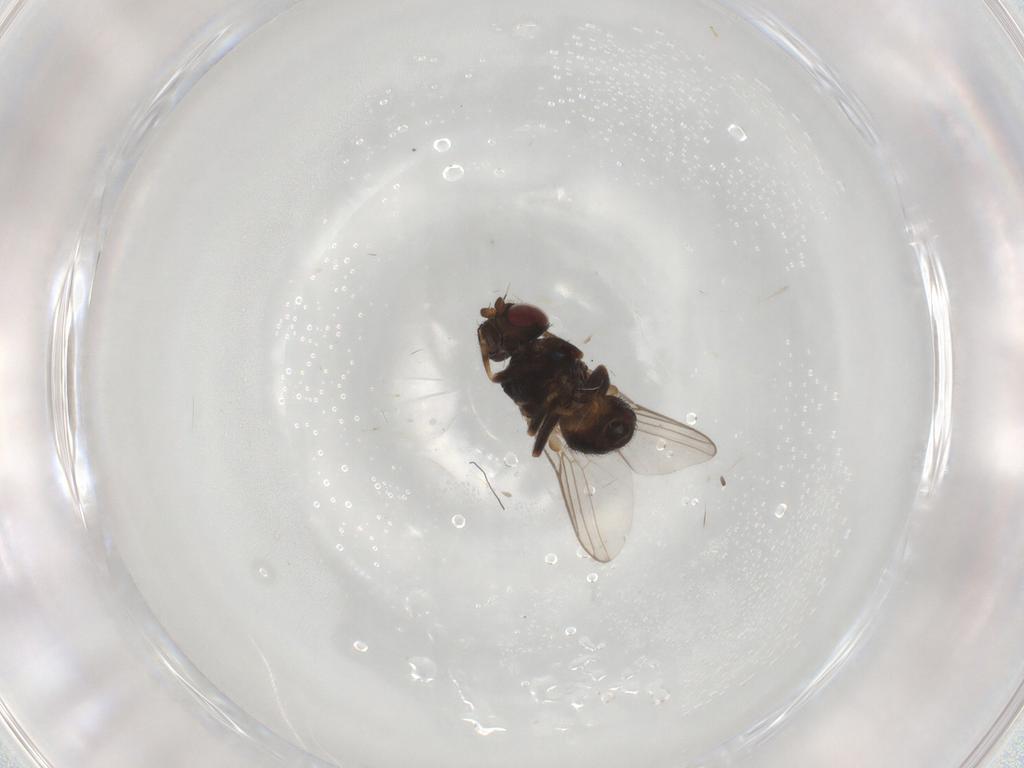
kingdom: Animalia
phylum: Arthropoda
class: Insecta
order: Diptera
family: Chloropidae
